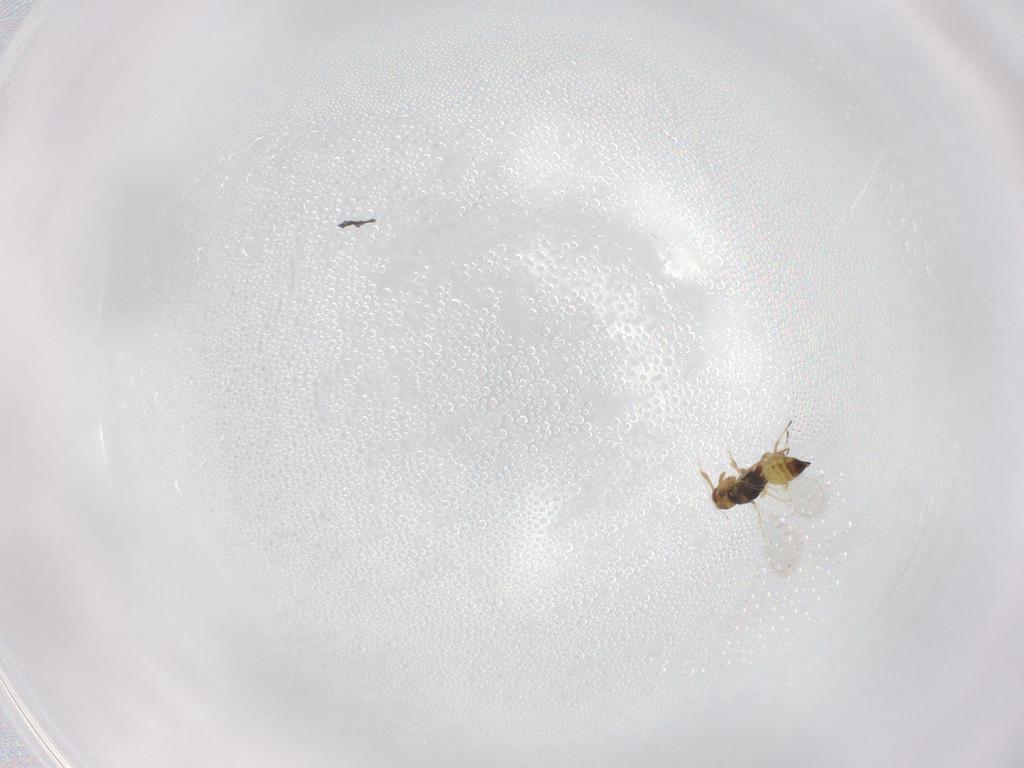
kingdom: Animalia
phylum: Arthropoda
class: Insecta
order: Hymenoptera
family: Eulophidae
